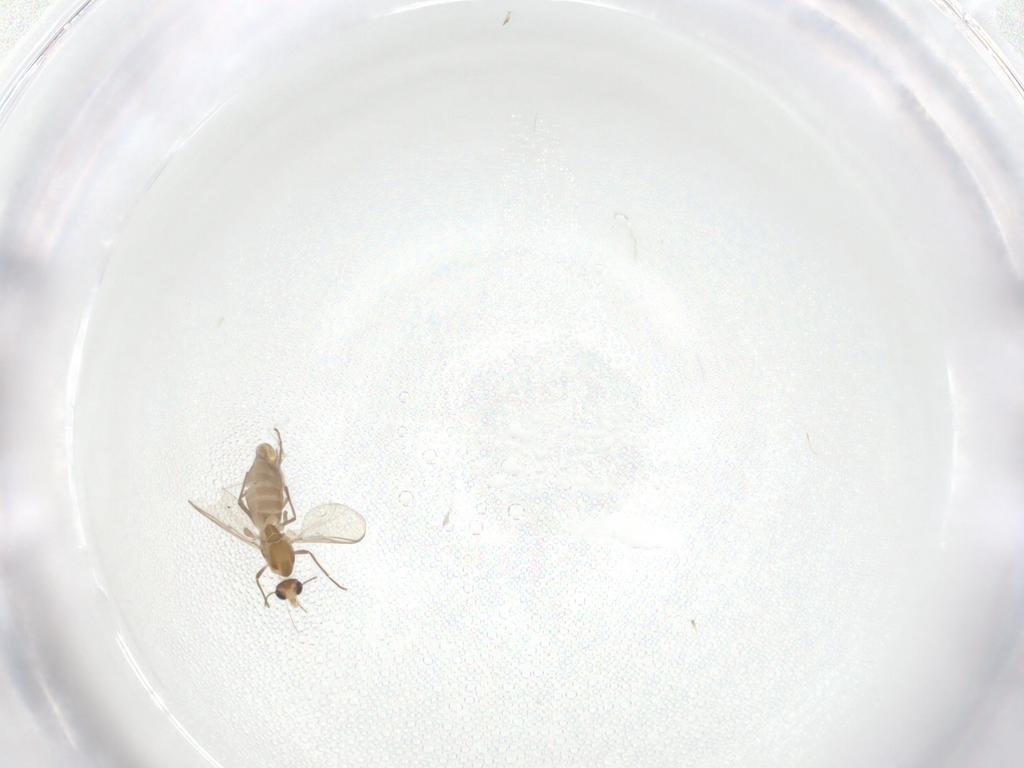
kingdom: Animalia
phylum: Arthropoda
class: Insecta
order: Diptera
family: Chironomidae
